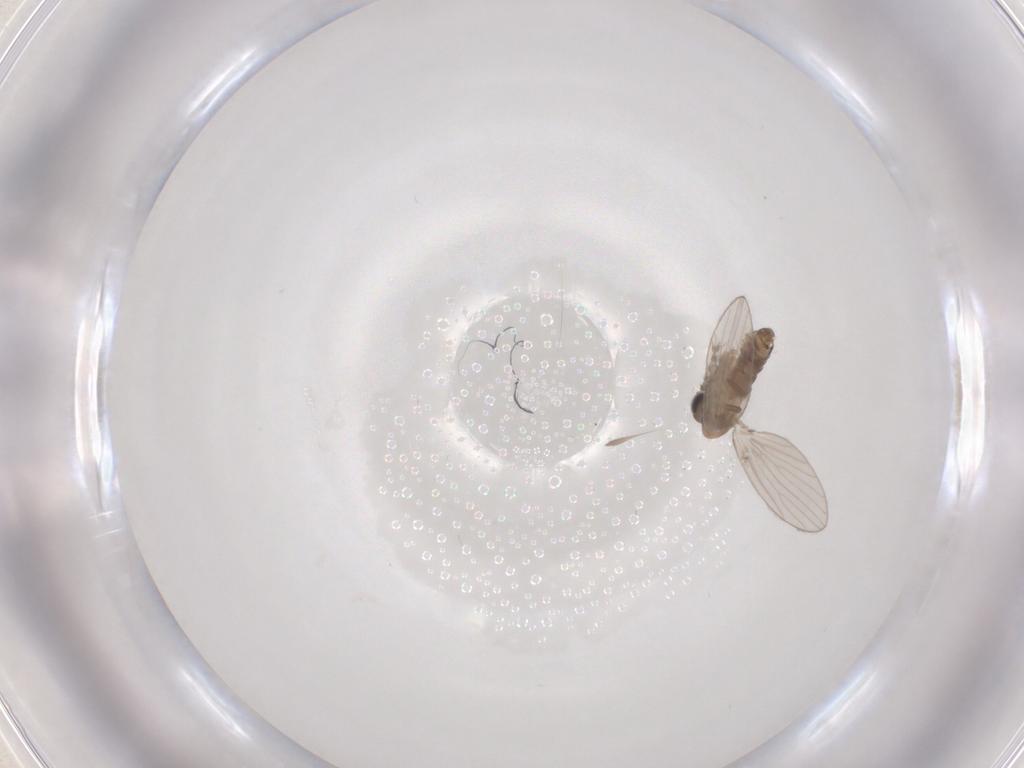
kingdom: Animalia
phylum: Arthropoda
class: Insecta
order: Diptera
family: Psychodidae
